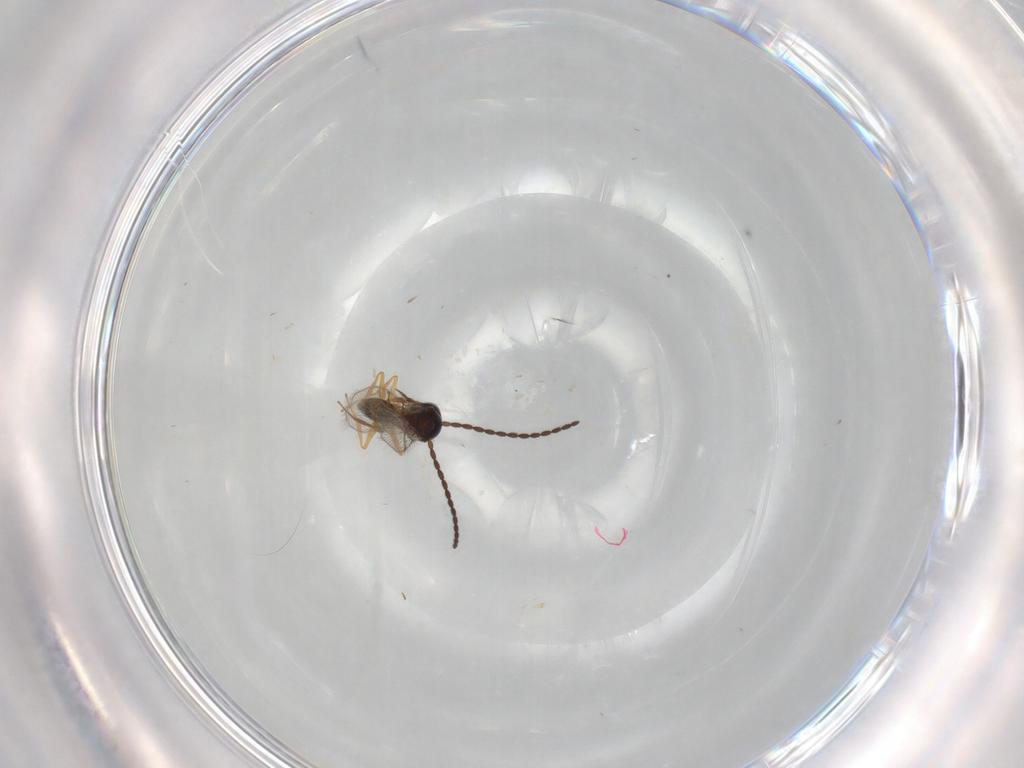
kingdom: Animalia
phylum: Arthropoda
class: Insecta
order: Hymenoptera
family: Figitidae
